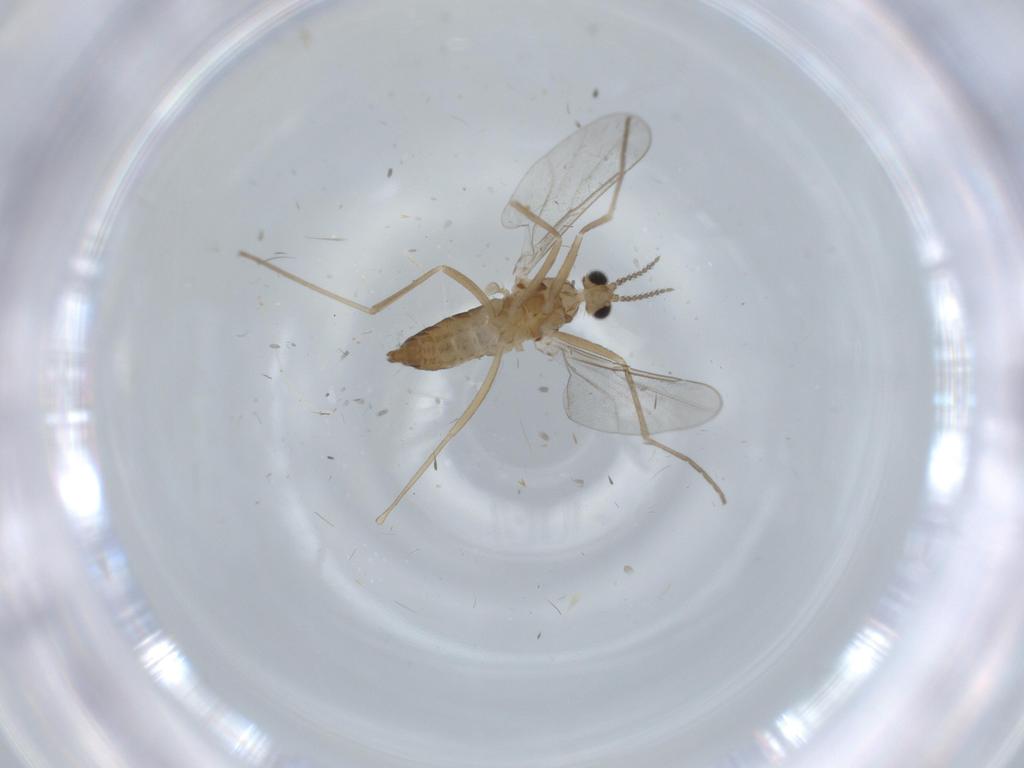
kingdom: Animalia
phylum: Arthropoda
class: Insecta
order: Diptera
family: Cecidomyiidae
